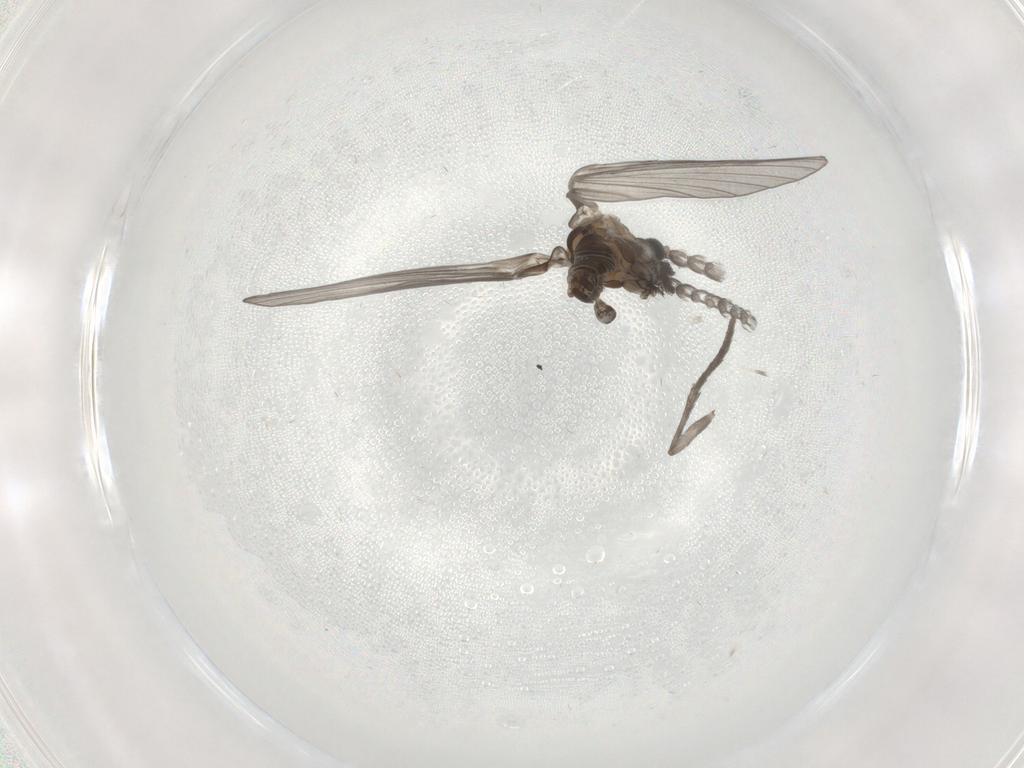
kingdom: Animalia
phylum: Arthropoda
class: Insecta
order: Diptera
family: Psychodidae
